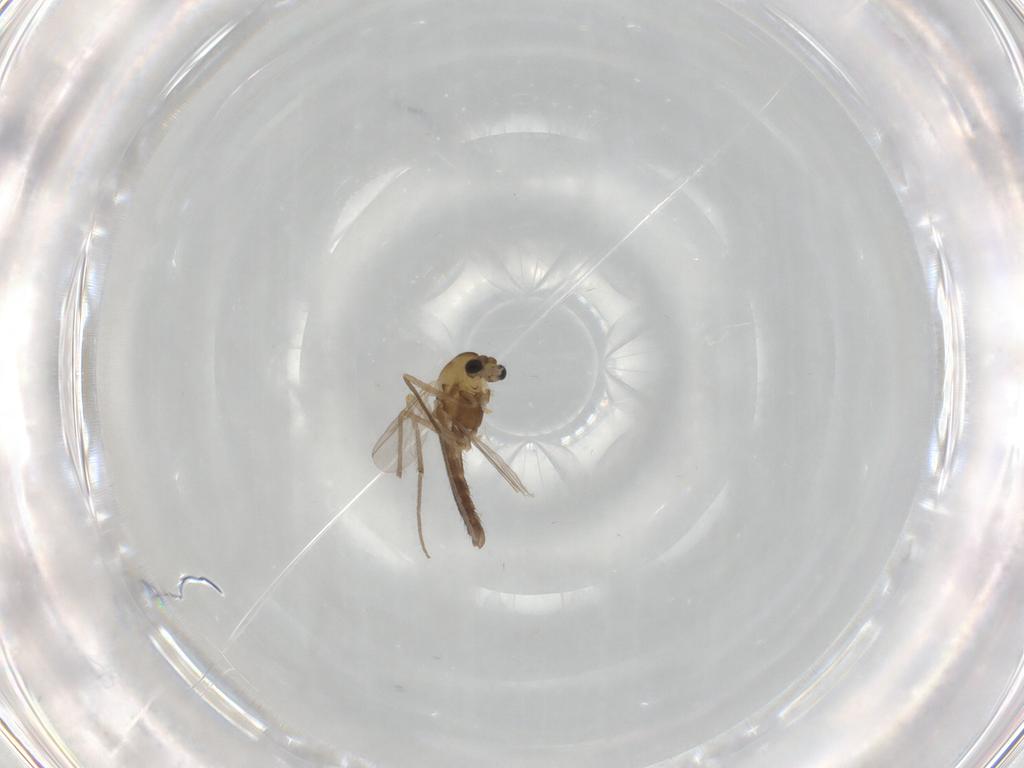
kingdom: Animalia
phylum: Arthropoda
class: Insecta
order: Diptera
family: Chironomidae
